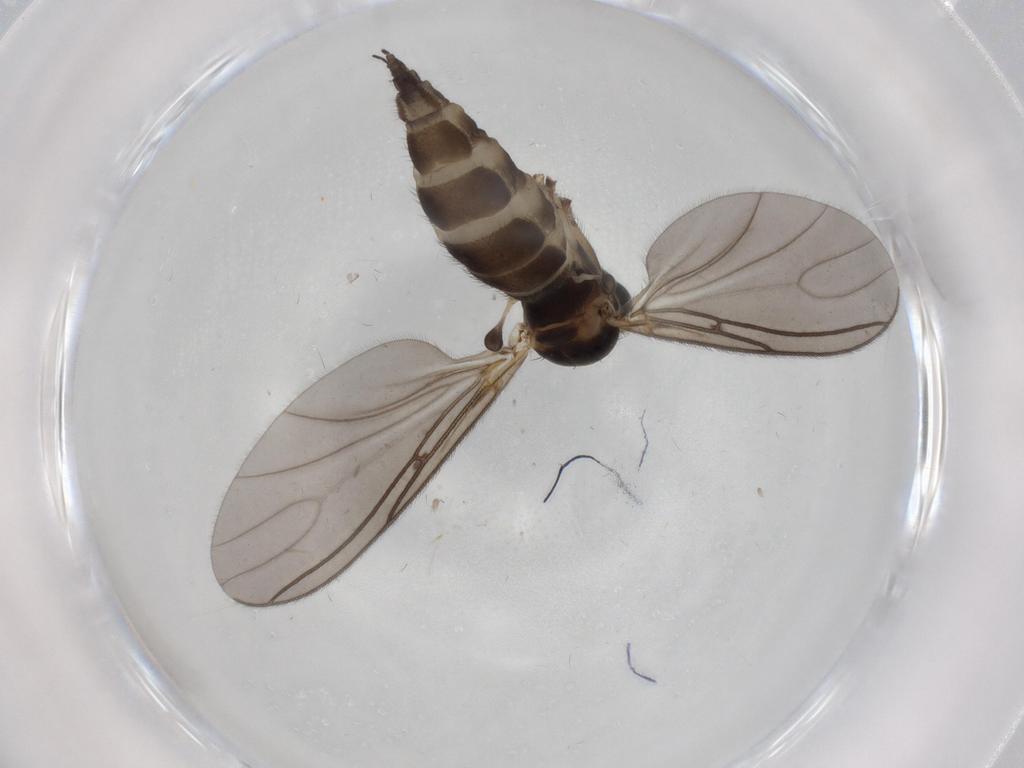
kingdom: Animalia
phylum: Arthropoda
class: Insecta
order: Diptera
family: Sciaridae
